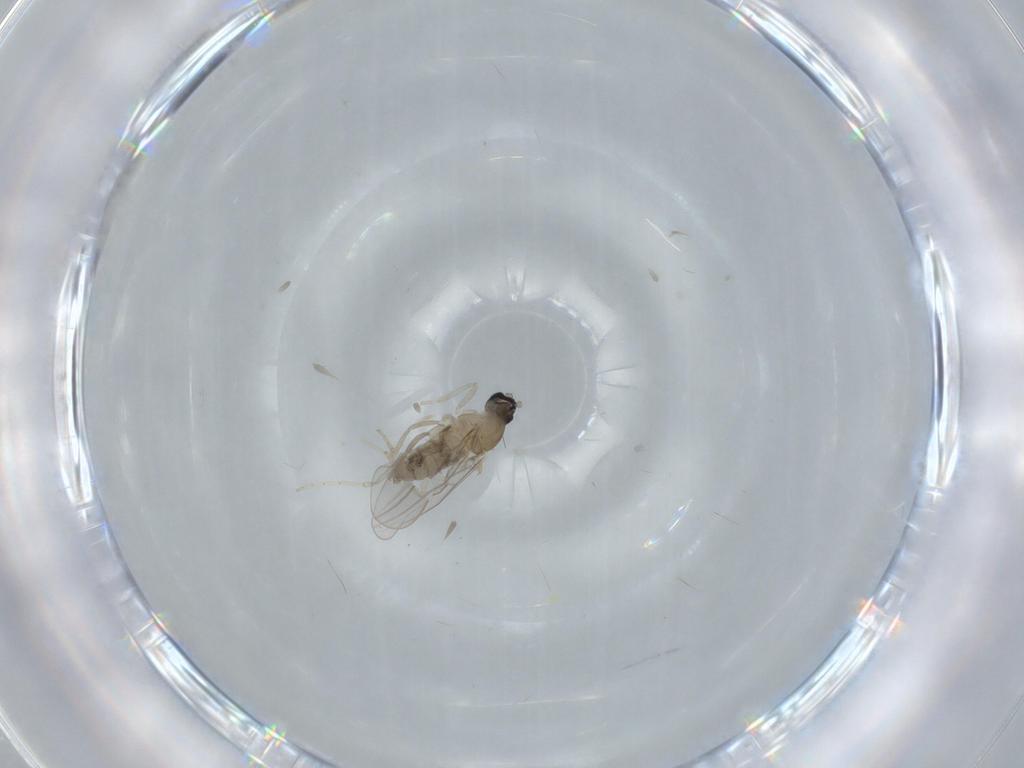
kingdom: Animalia
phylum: Arthropoda
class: Insecta
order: Diptera
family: Cecidomyiidae
